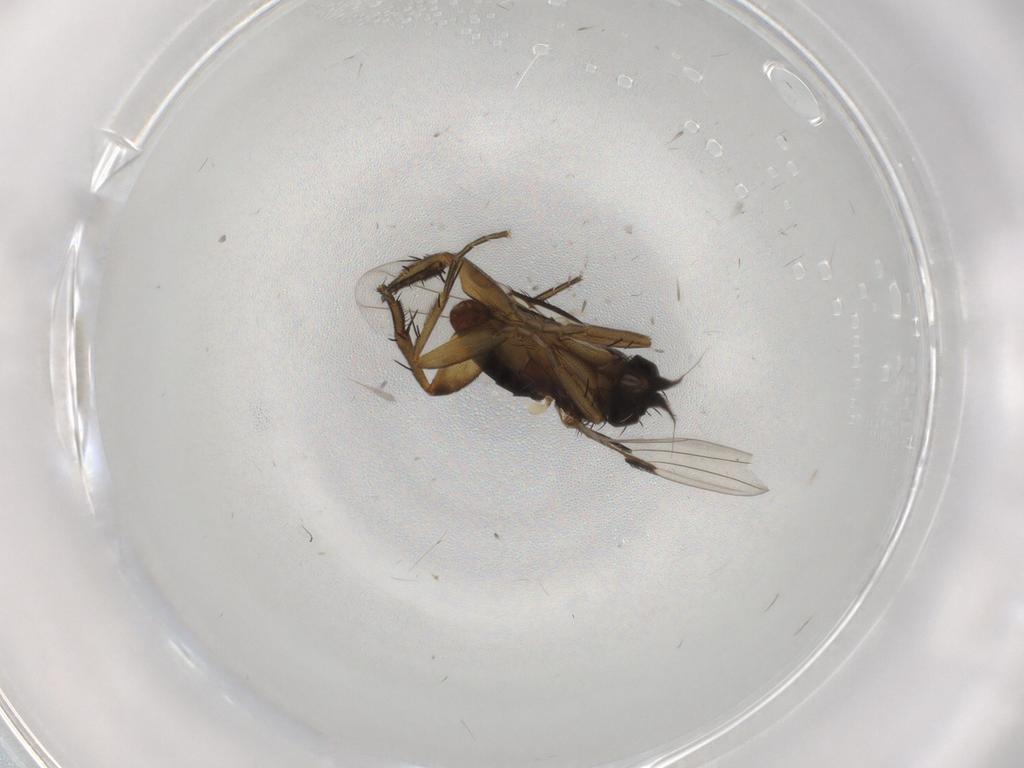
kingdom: Animalia
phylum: Arthropoda
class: Insecta
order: Diptera
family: Phoridae
